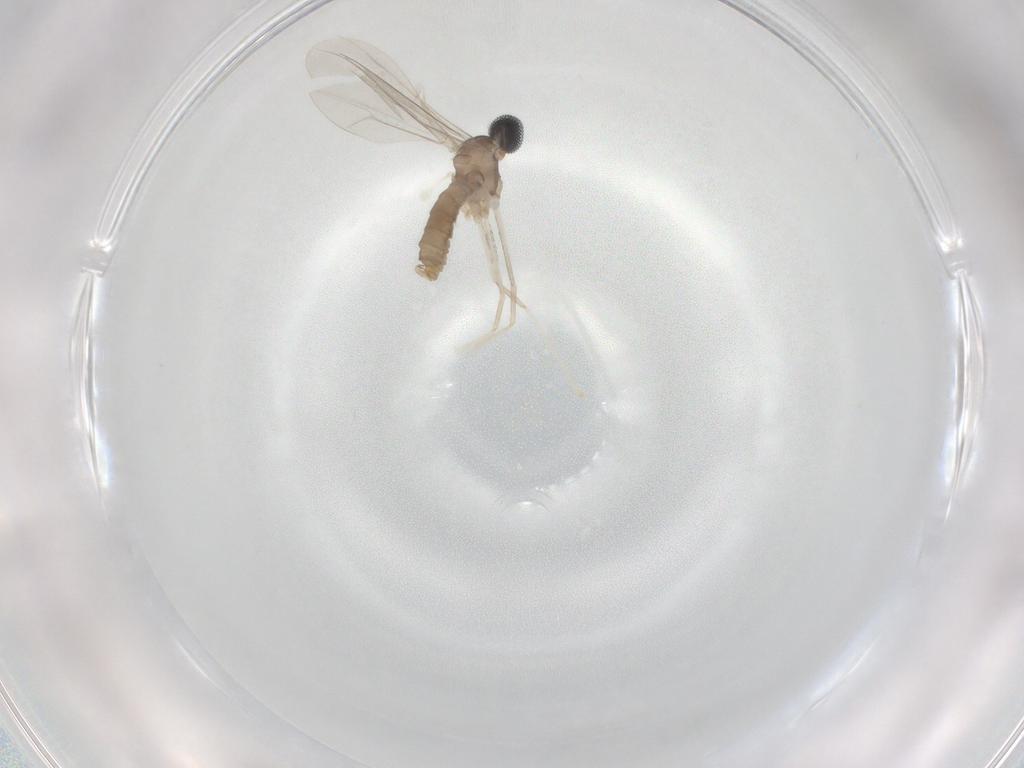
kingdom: Animalia
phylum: Arthropoda
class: Insecta
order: Diptera
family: Cecidomyiidae
